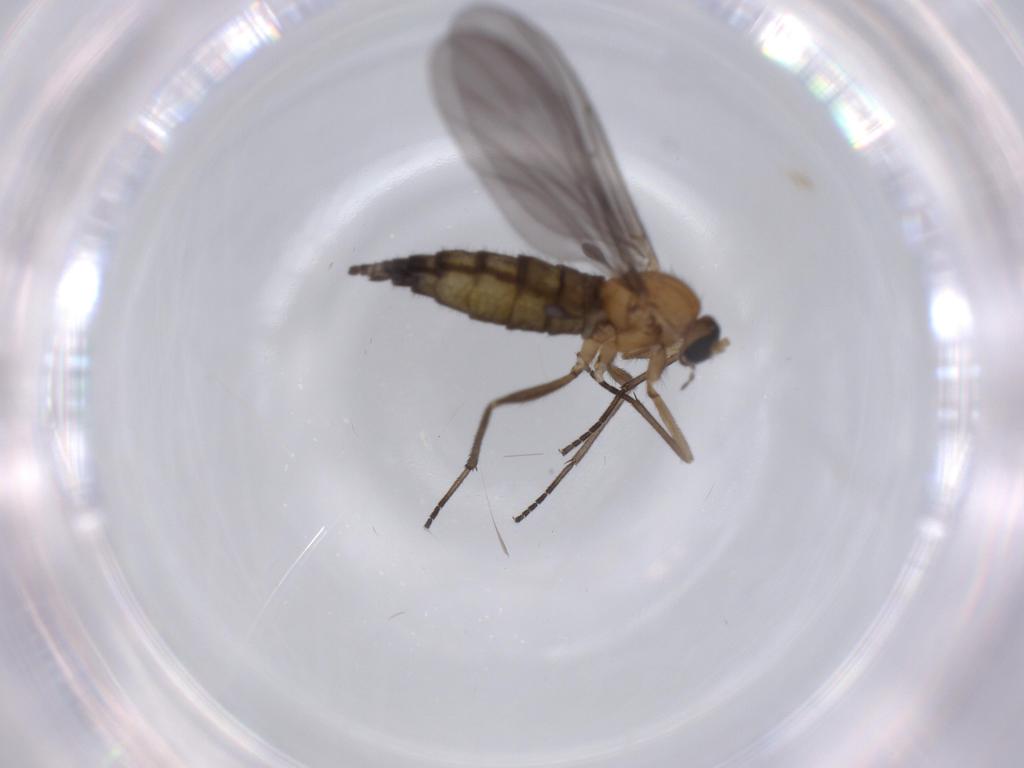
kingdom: Animalia
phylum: Arthropoda
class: Insecta
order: Diptera
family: Sciaridae
